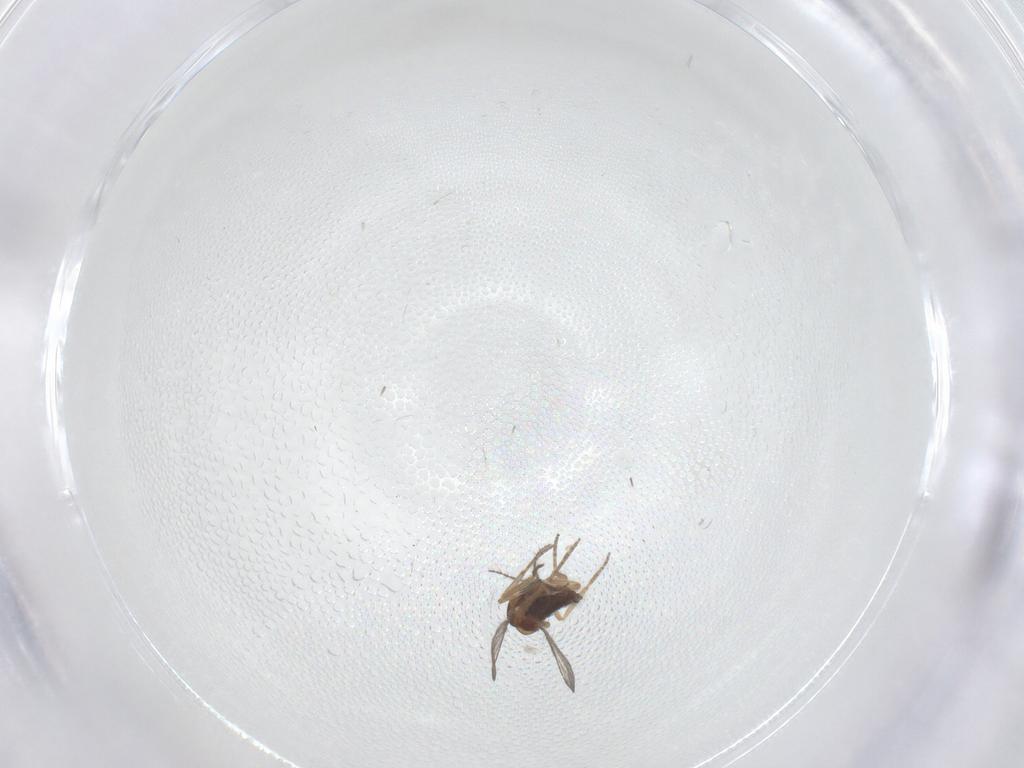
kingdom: Animalia
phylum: Arthropoda
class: Insecta
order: Diptera
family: Ceratopogonidae
